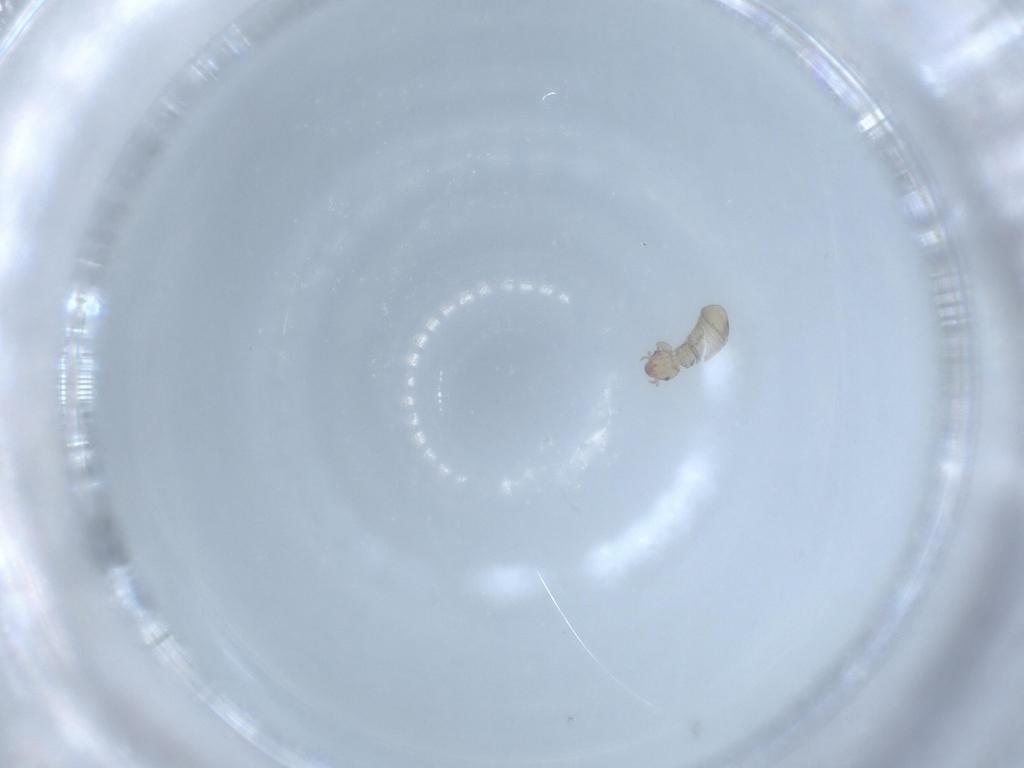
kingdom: Animalia
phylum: Arthropoda
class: Insecta
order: Psocodea
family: Liposcelididae
